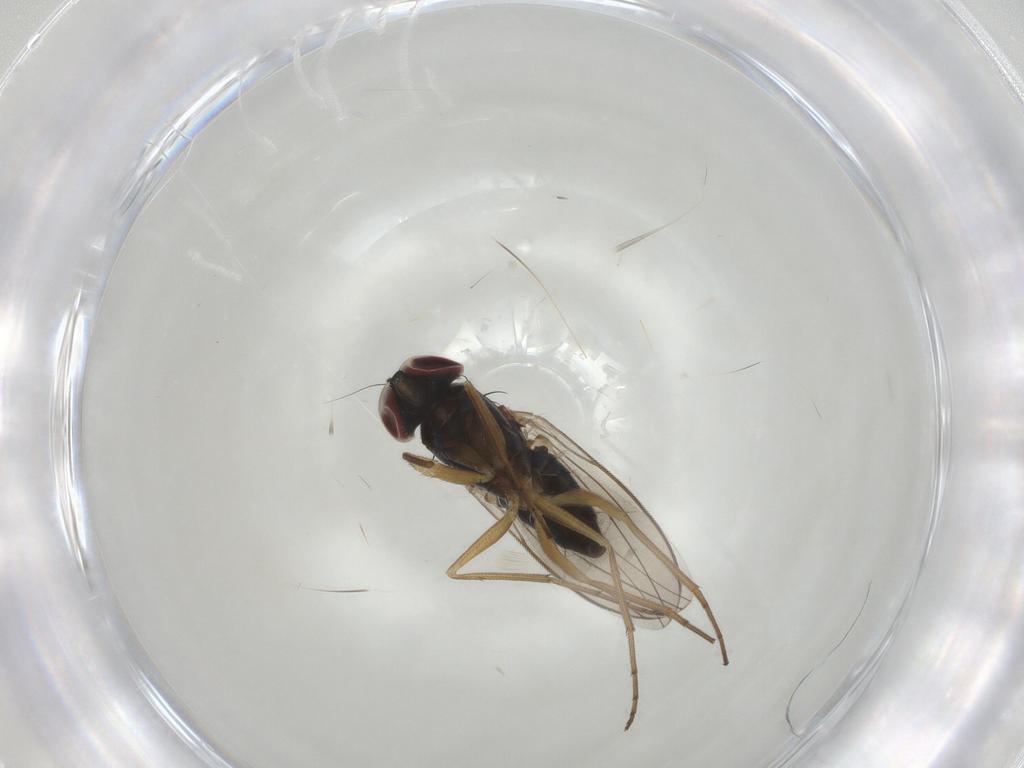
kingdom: Animalia
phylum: Arthropoda
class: Insecta
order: Diptera
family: Dolichopodidae
